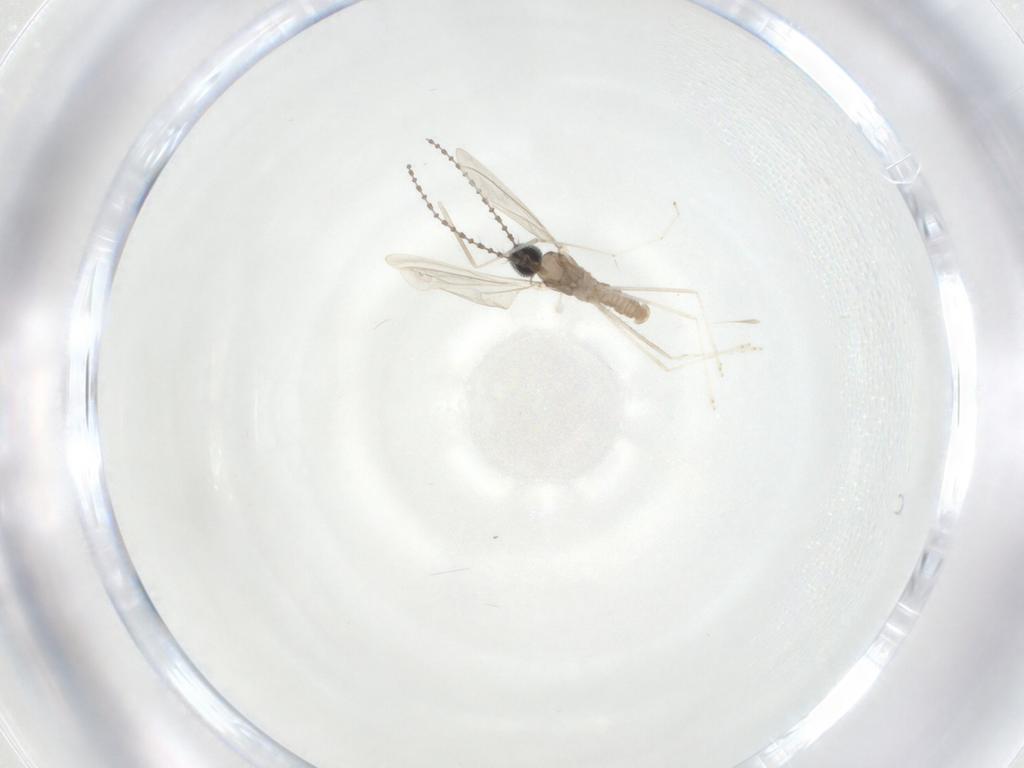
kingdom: Animalia
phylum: Arthropoda
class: Insecta
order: Diptera
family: Cecidomyiidae
